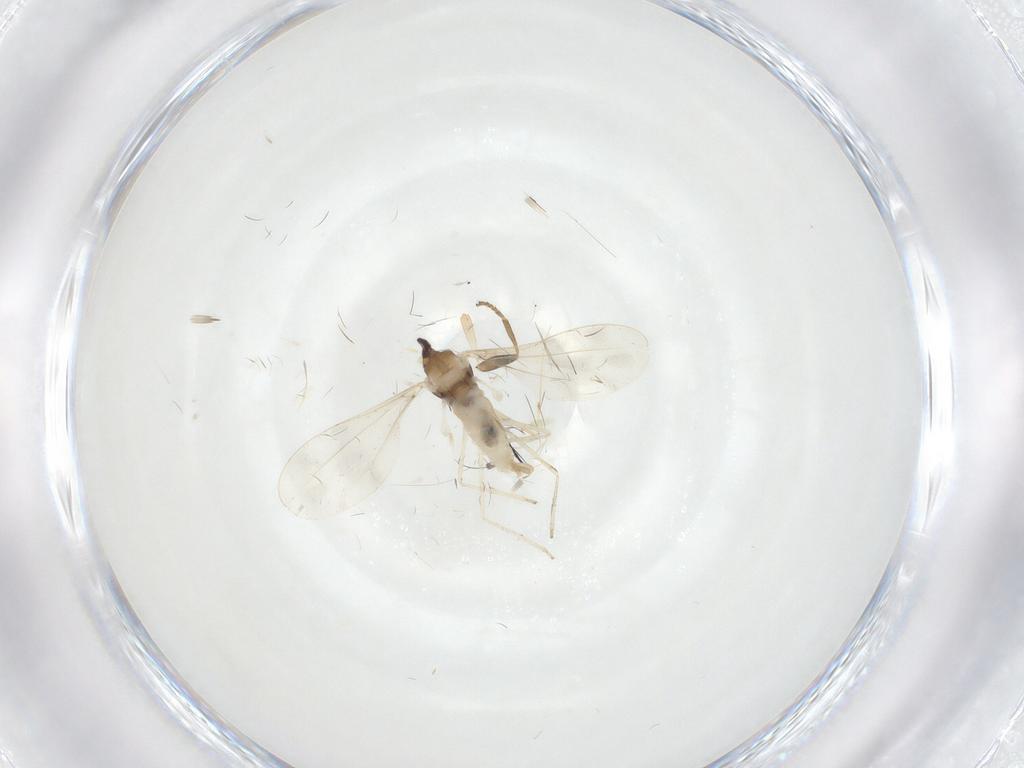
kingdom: Animalia
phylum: Arthropoda
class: Insecta
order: Diptera
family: Scatopsidae
